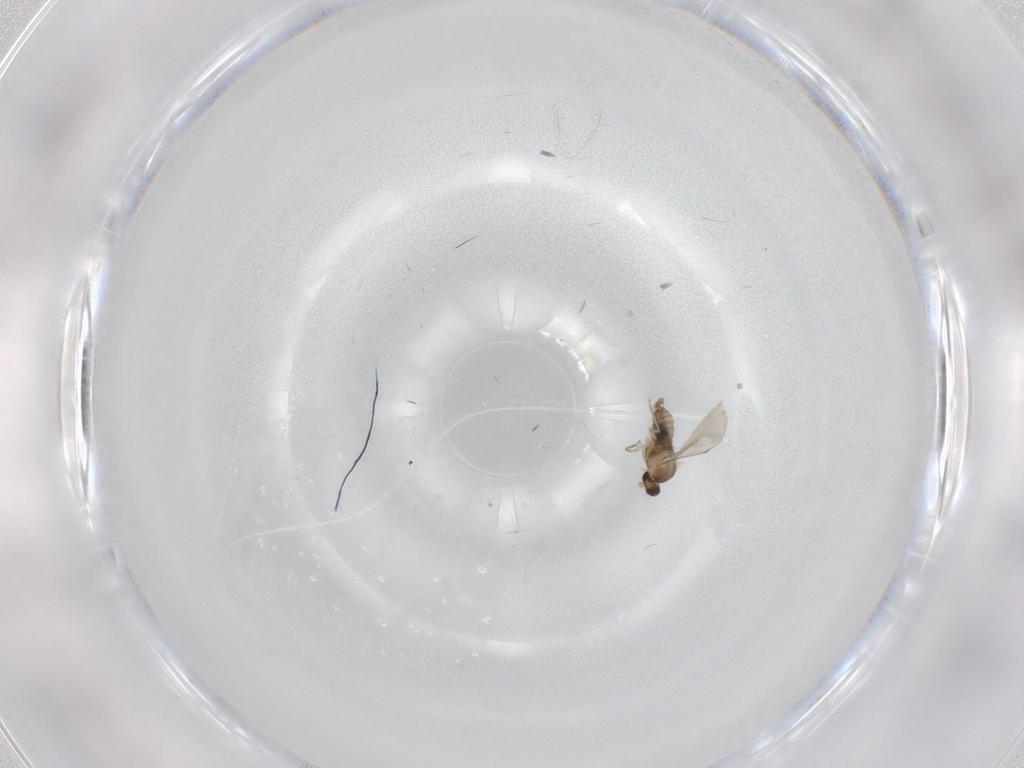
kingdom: Animalia
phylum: Arthropoda
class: Insecta
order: Diptera
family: Cecidomyiidae
